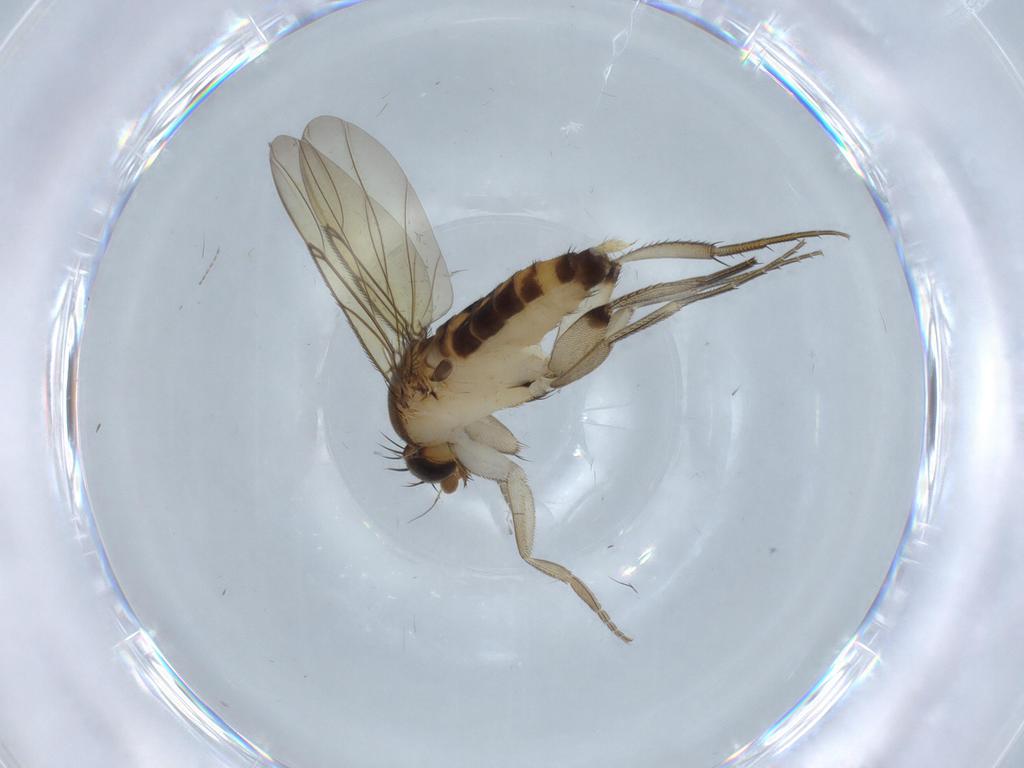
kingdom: Animalia
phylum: Arthropoda
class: Insecta
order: Diptera
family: Phoridae
